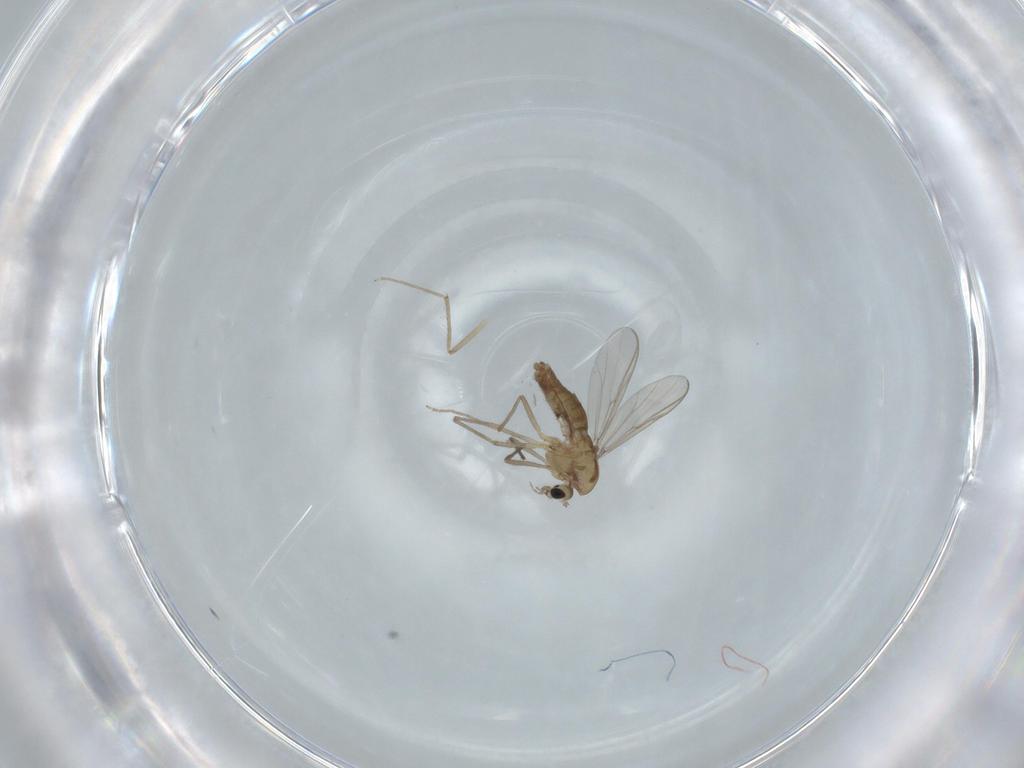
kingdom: Animalia
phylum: Arthropoda
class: Insecta
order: Diptera
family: Chironomidae
